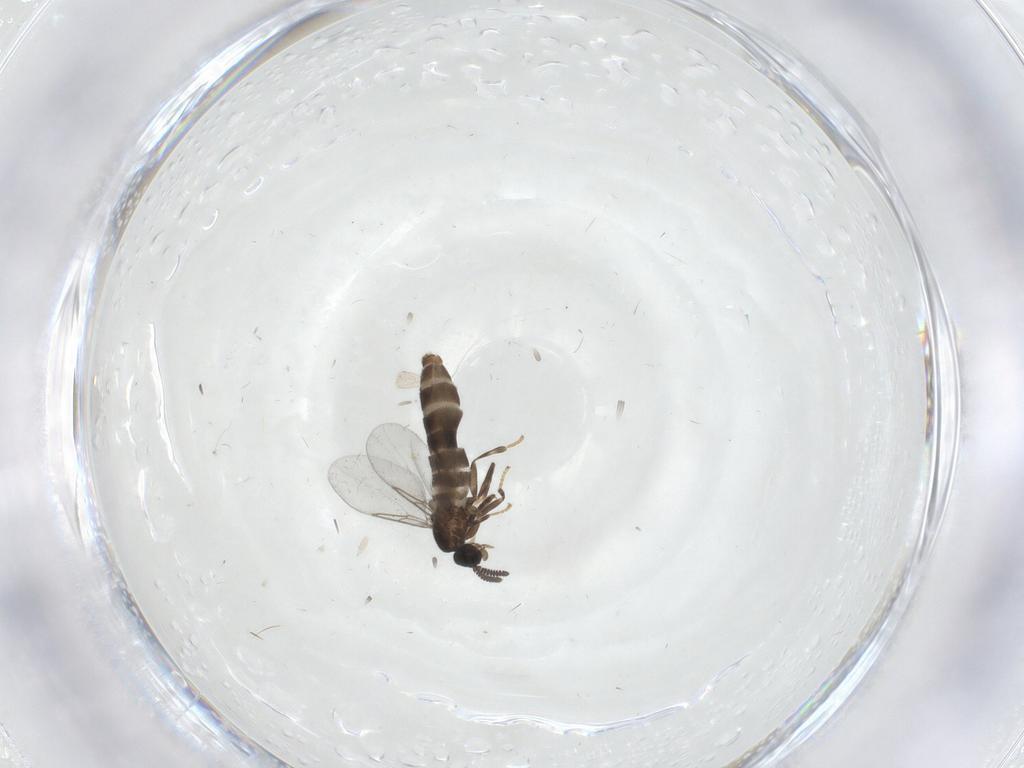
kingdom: Animalia
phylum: Arthropoda
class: Insecta
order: Diptera
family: Scatopsidae
